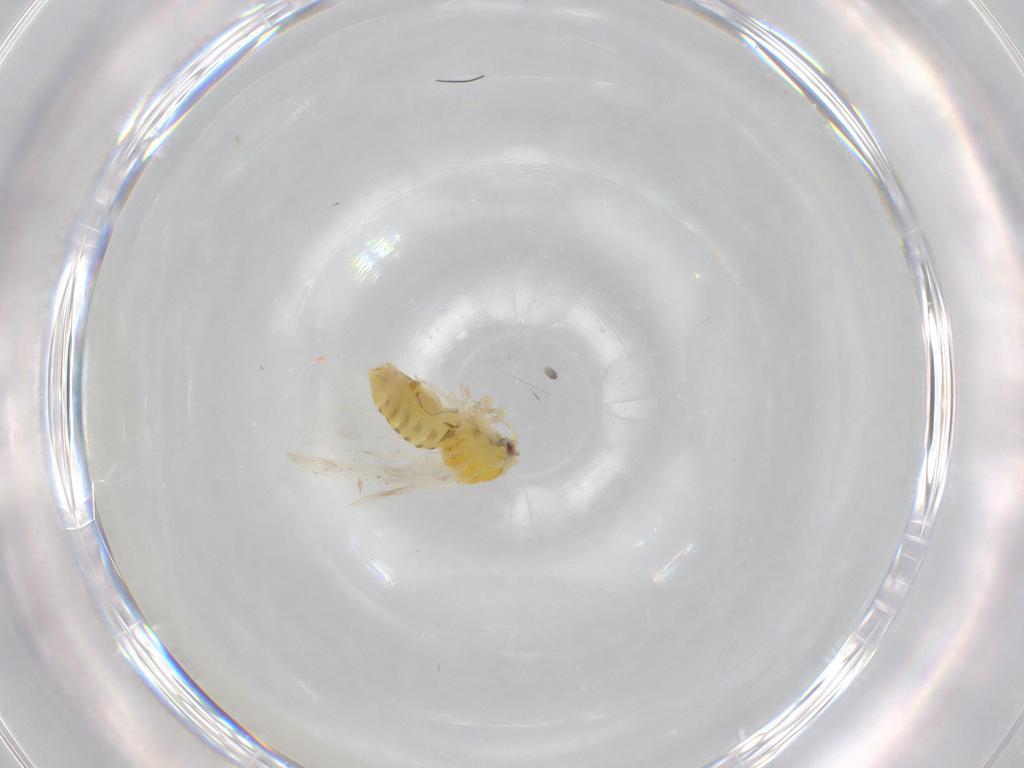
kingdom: Animalia
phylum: Arthropoda
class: Insecta
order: Hemiptera
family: Aleyrodidae
